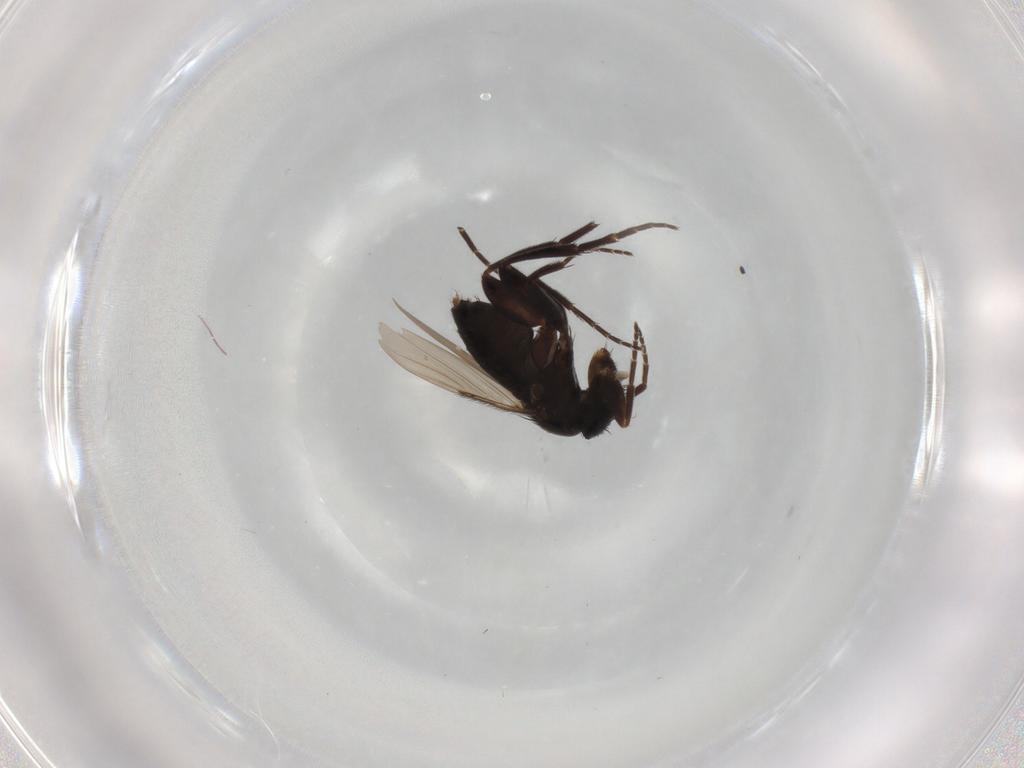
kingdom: Animalia
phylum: Arthropoda
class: Insecta
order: Diptera
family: Sciaridae
